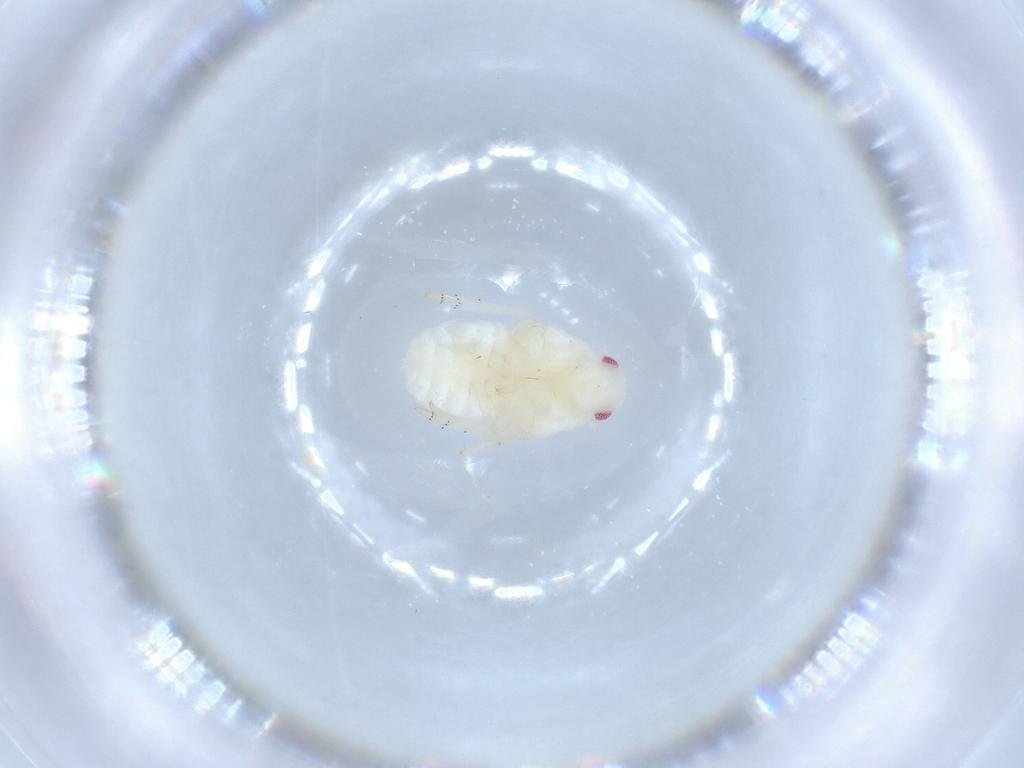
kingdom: Animalia
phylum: Arthropoda
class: Insecta
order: Hemiptera
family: Flatidae
